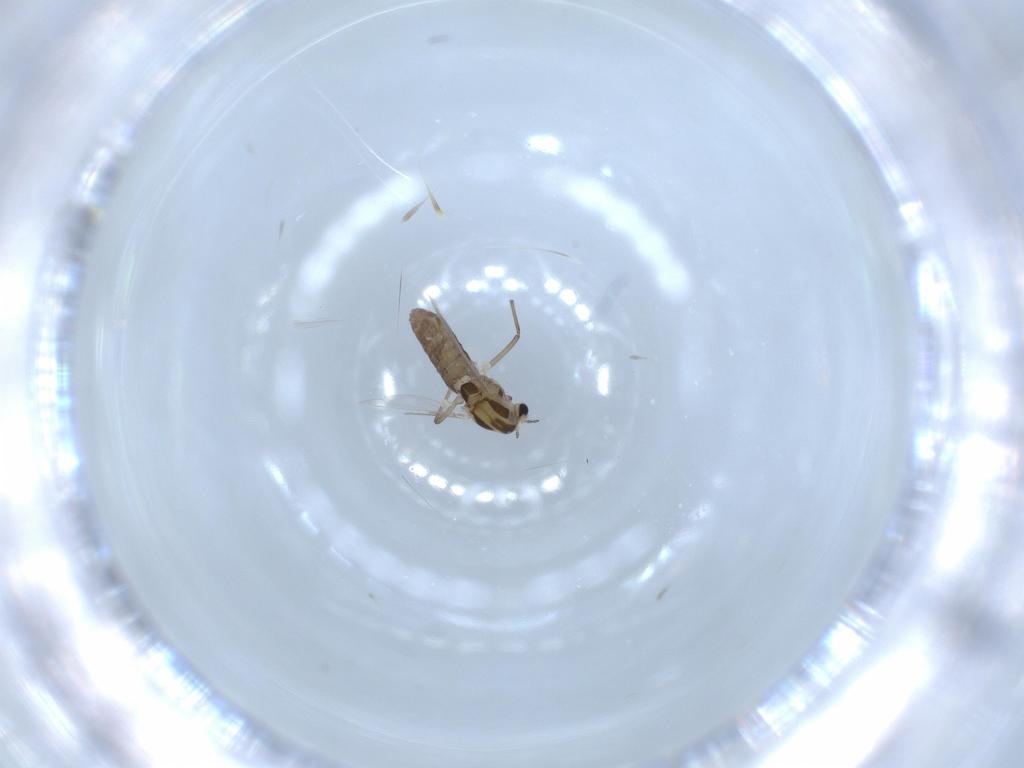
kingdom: Animalia
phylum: Arthropoda
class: Insecta
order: Diptera
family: Chironomidae
